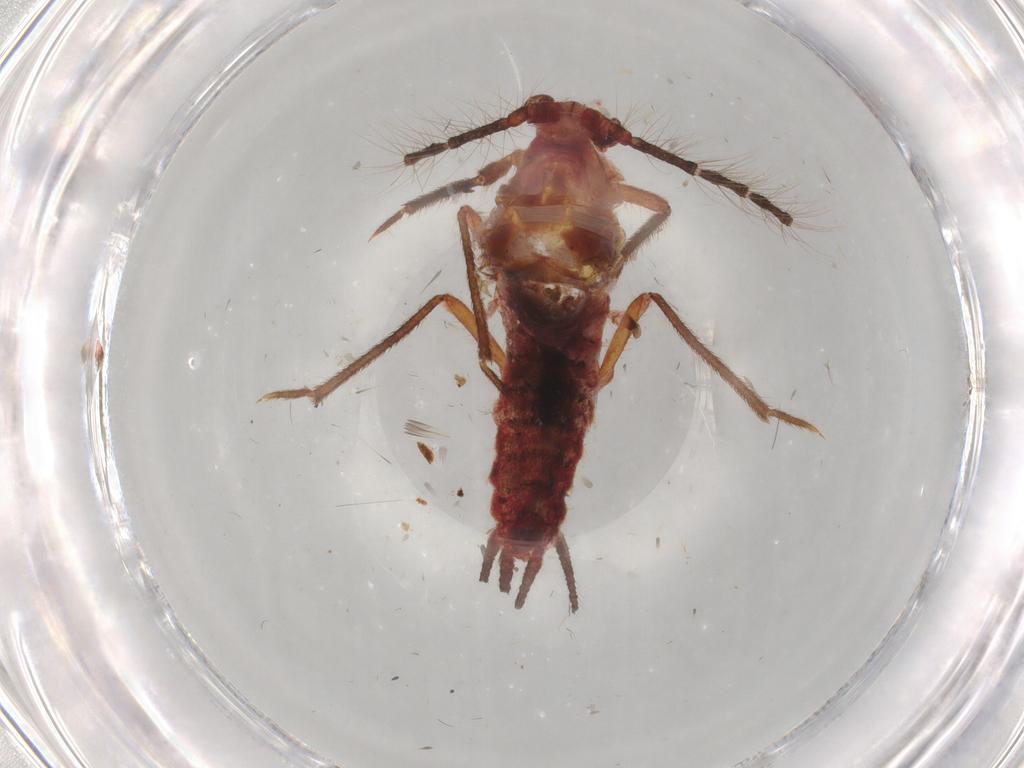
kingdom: Animalia
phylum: Arthropoda
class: Insecta
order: Hemiptera
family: Margarodidae
